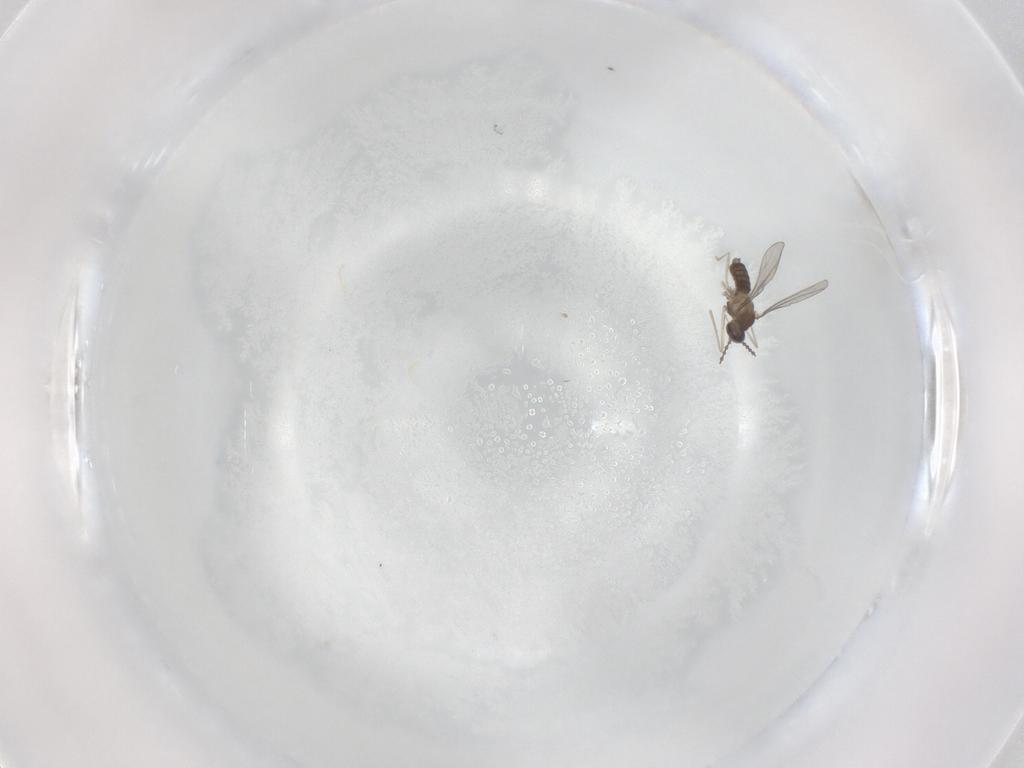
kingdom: Animalia
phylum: Arthropoda
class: Insecta
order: Diptera
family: Cecidomyiidae
